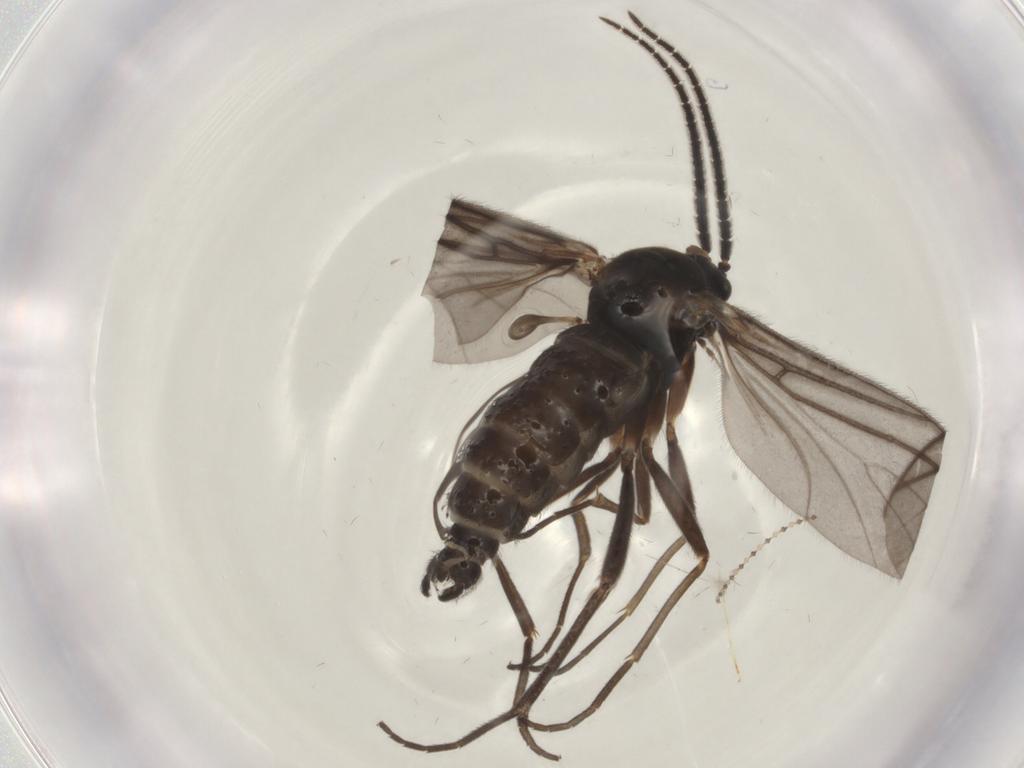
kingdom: Animalia
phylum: Arthropoda
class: Insecta
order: Diptera
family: Sciaridae
